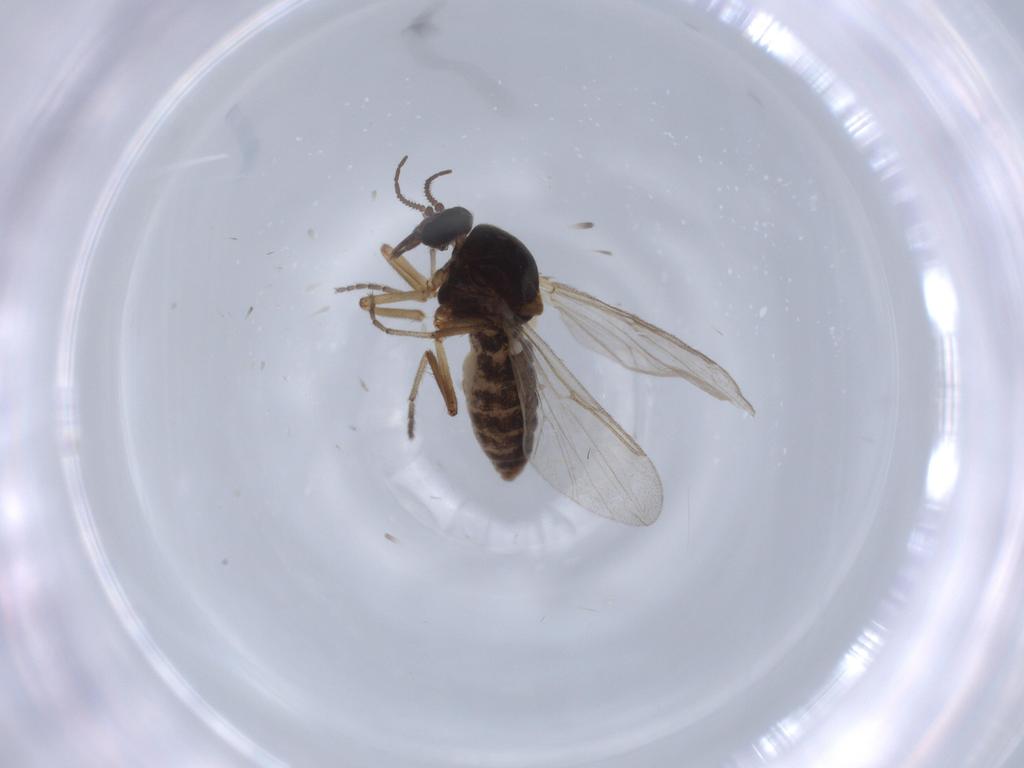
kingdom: Animalia
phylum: Arthropoda
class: Insecta
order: Diptera
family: Ceratopogonidae
